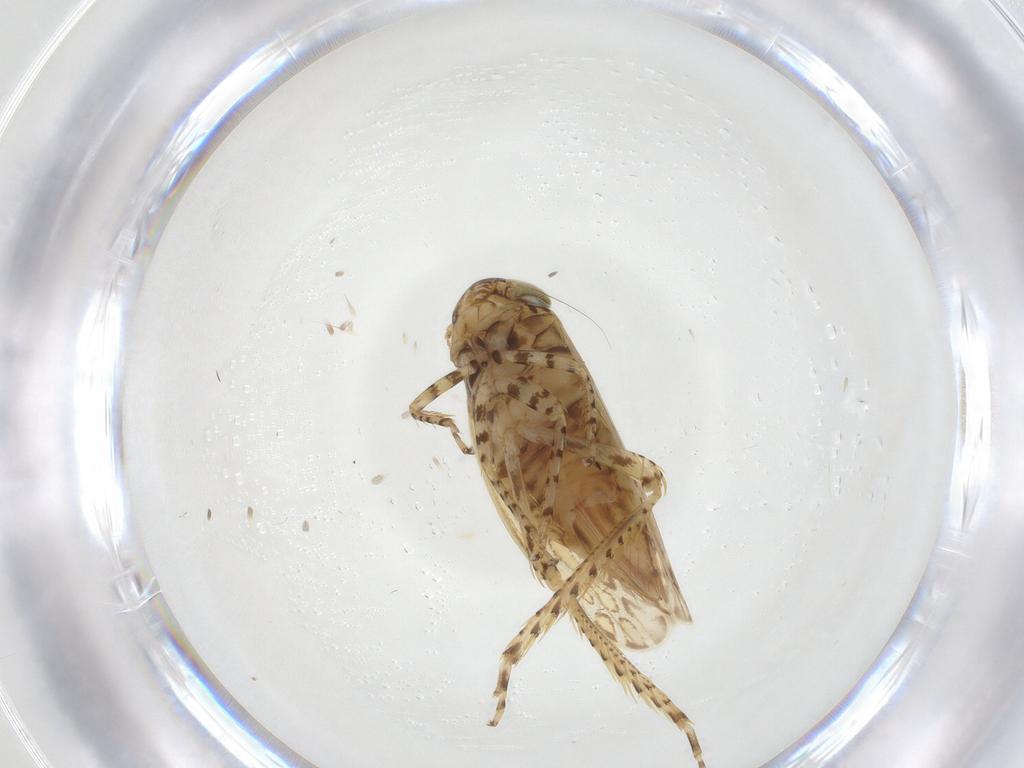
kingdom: Animalia
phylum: Arthropoda
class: Insecta
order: Hemiptera
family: Cicadellidae
